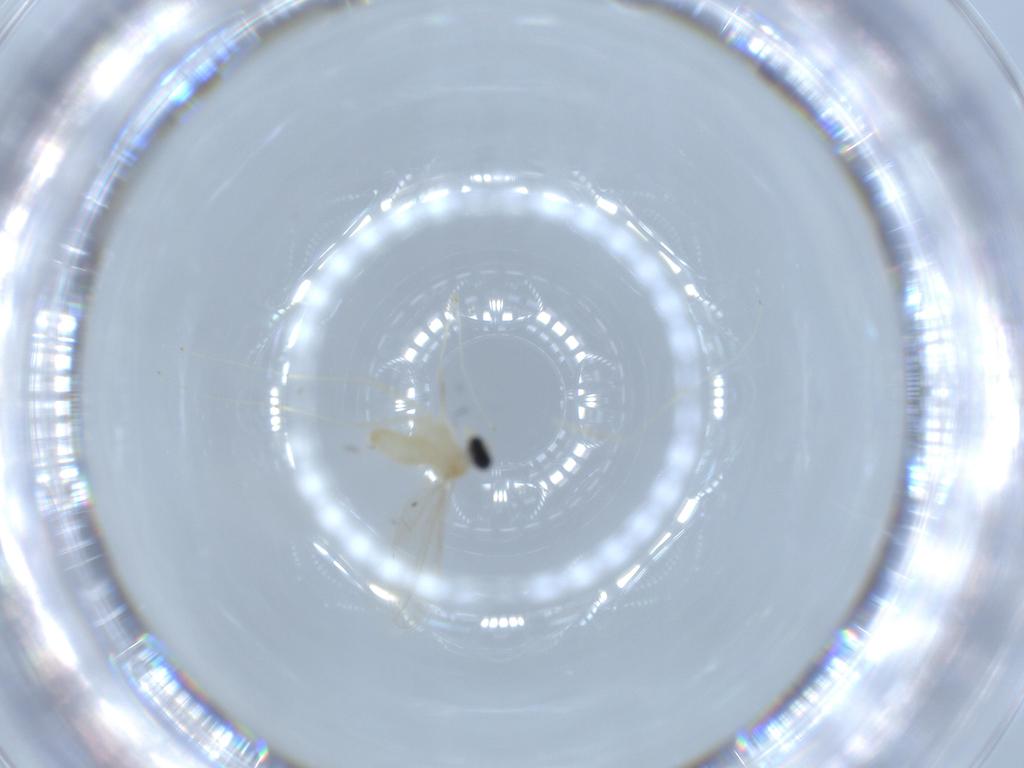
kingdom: Animalia
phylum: Arthropoda
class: Insecta
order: Diptera
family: Cecidomyiidae
